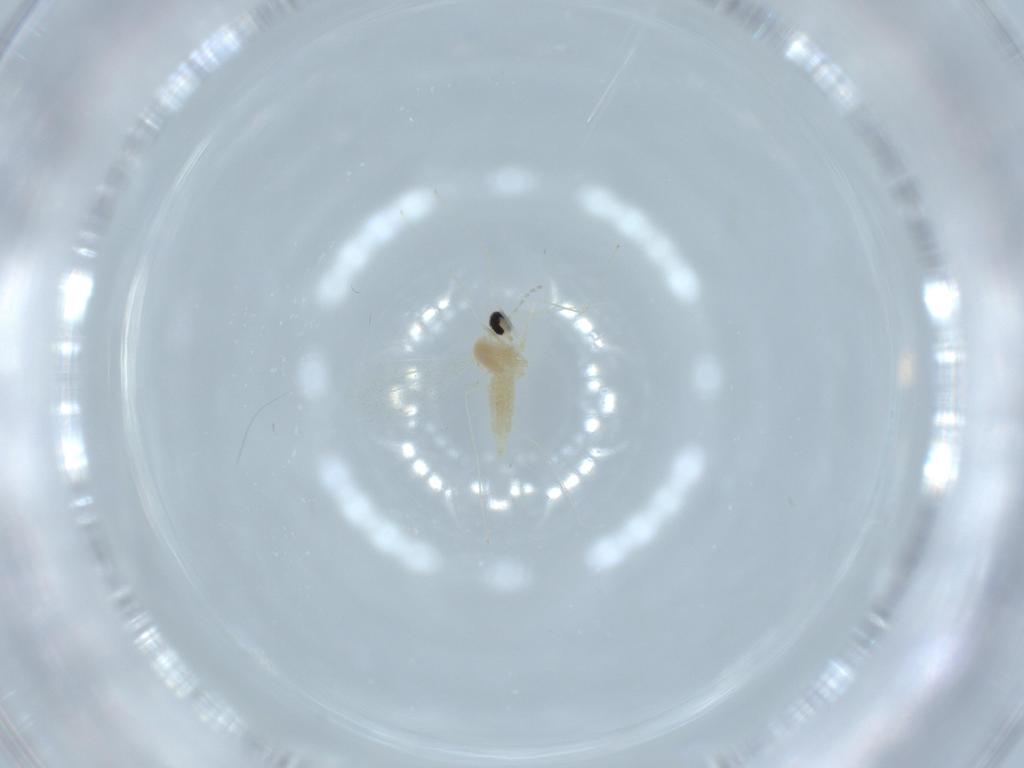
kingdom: Animalia
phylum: Arthropoda
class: Insecta
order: Diptera
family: Cecidomyiidae
